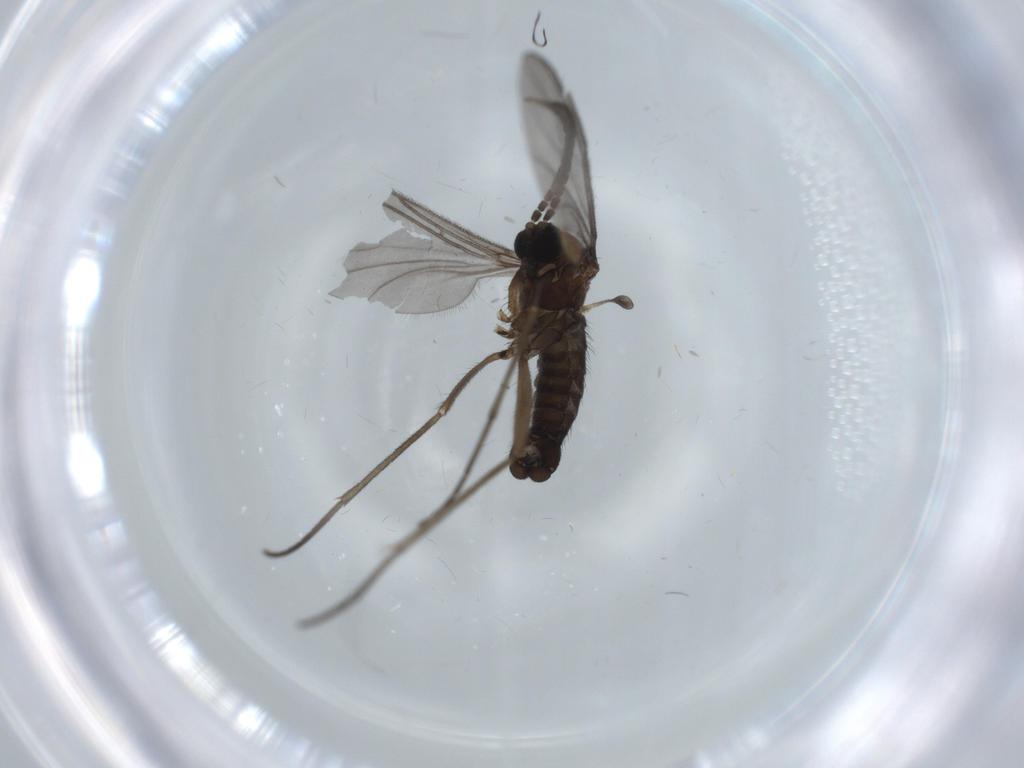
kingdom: Animalia
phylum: Arthropoda
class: Insecta
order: Diptera
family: Sciaridae
